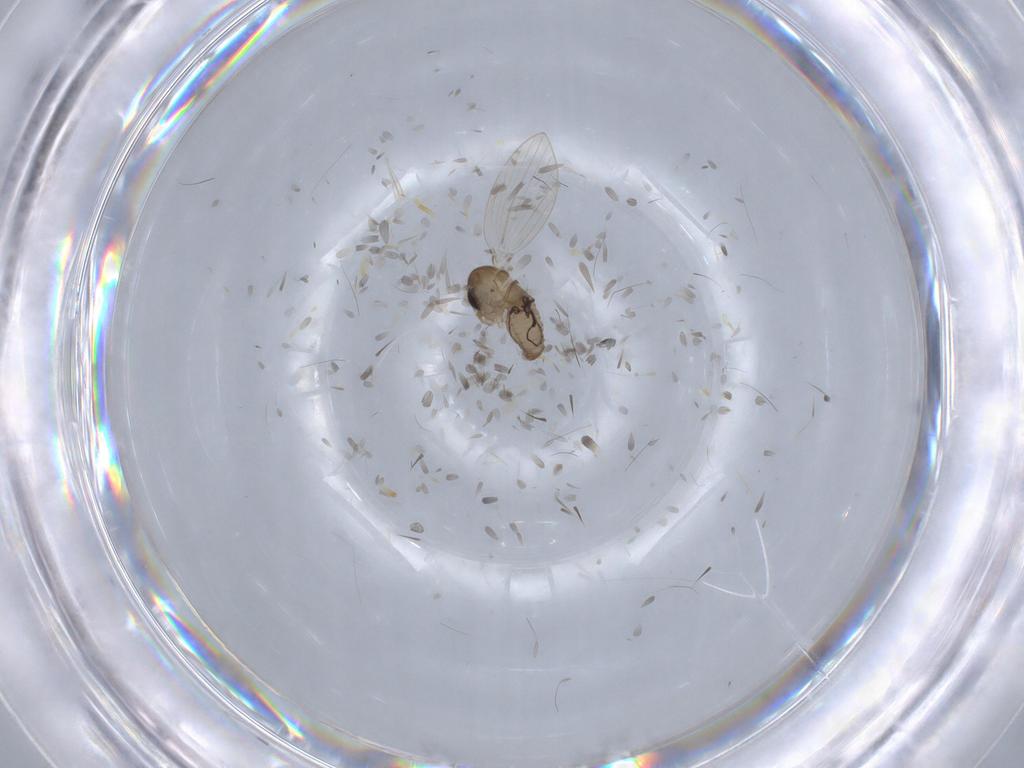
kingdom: Animalia
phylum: Arthropoda
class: Insecta
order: Diptera
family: Psychodidae
